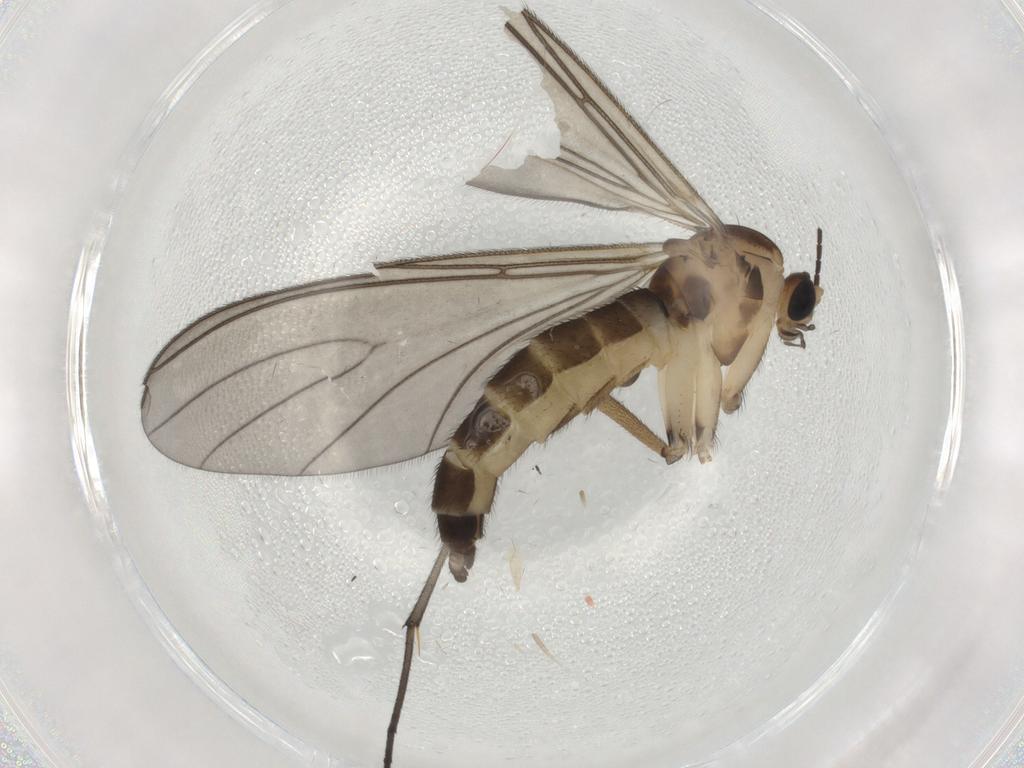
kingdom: Animalia
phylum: Arthropoda
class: Insecta
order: Diptera
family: Sciaridae
